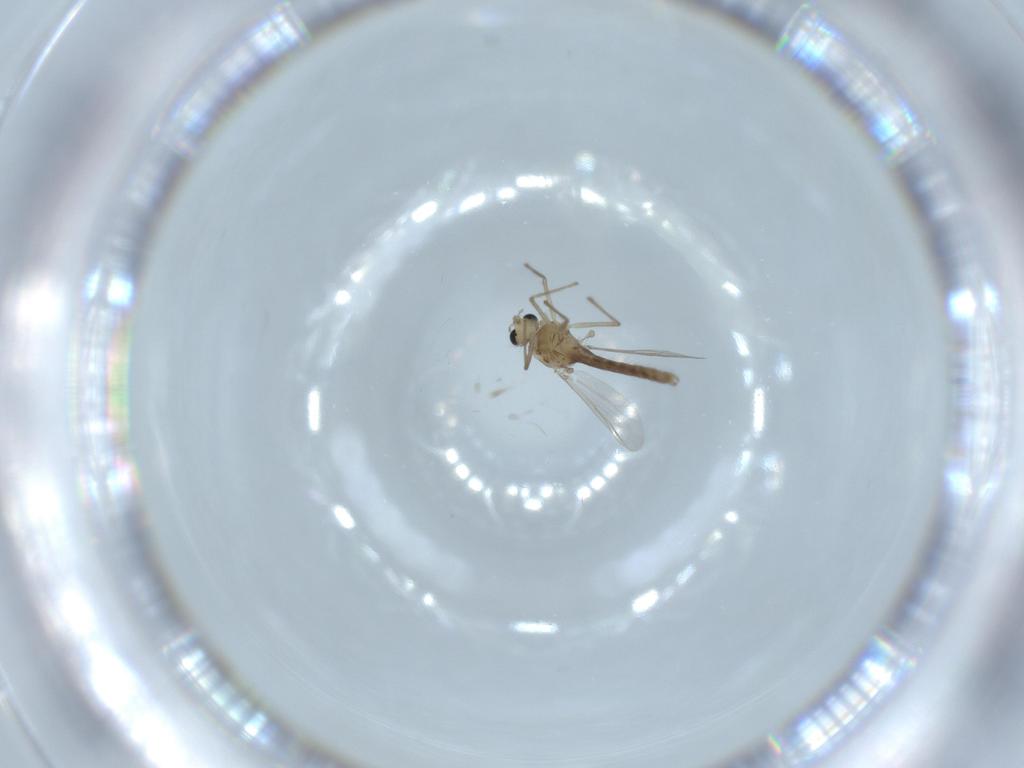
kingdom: Animalia
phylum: Arthropoda
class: Insecta
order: Diptera
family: Chironomidae
